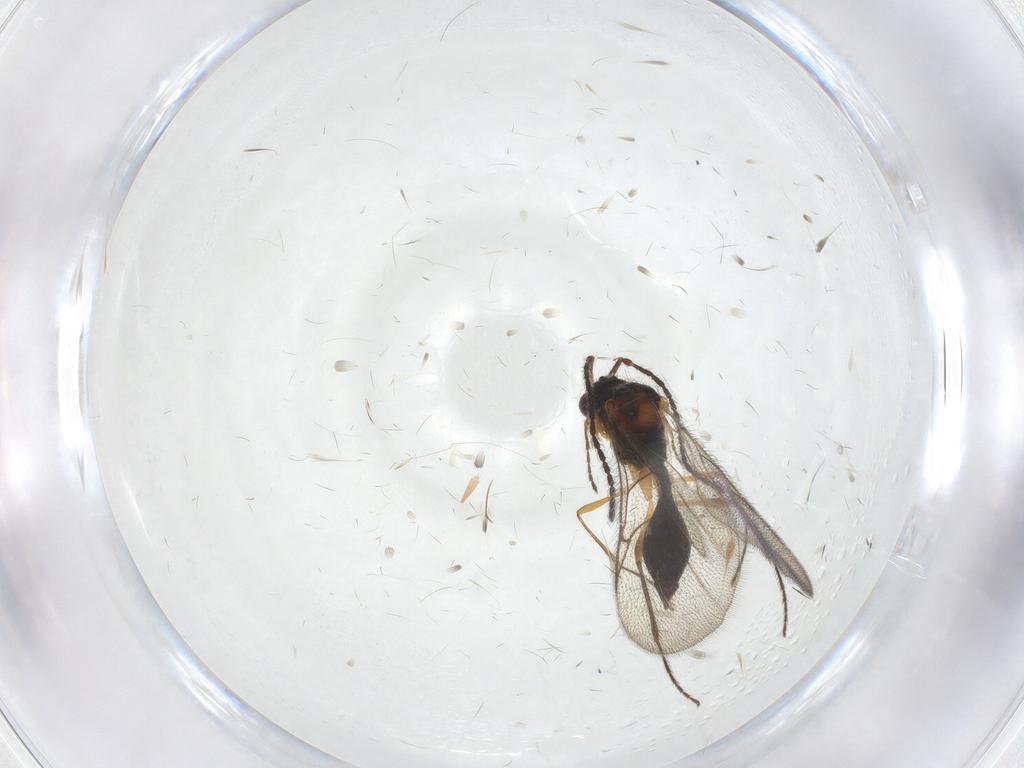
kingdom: Animalia
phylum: Arthropoda
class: Insecta
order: Hymenoptera
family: Diapriidae
